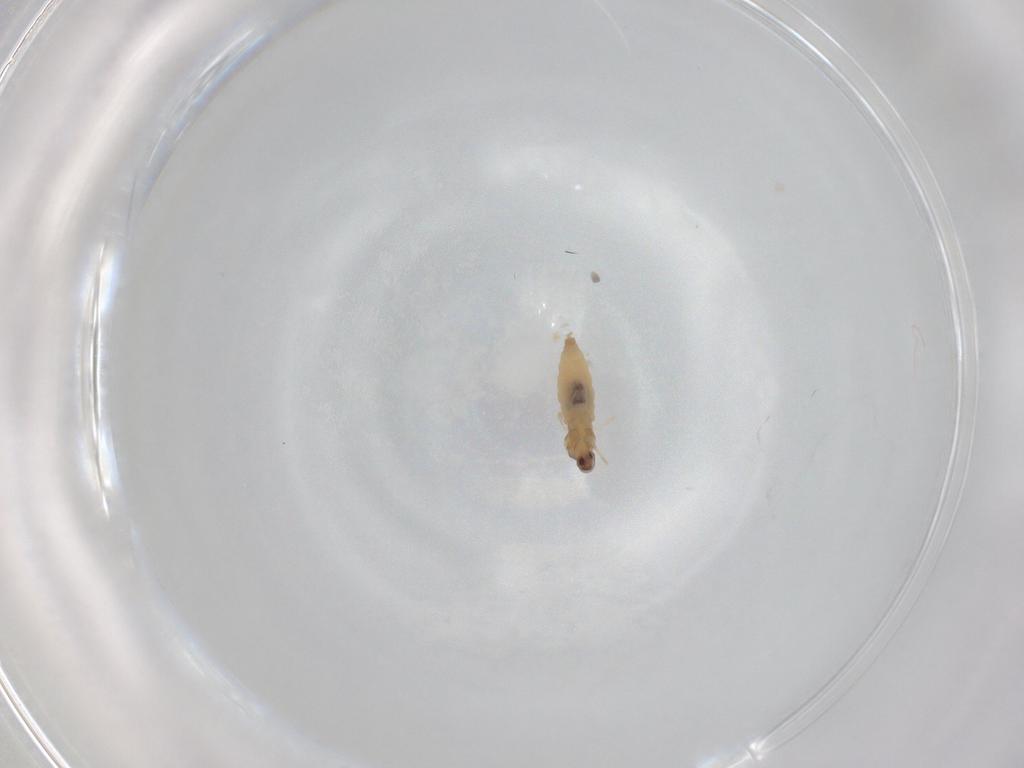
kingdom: Animalia
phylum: Arthropoda
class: Insecta
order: Diptera
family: Cecidomyiidae
